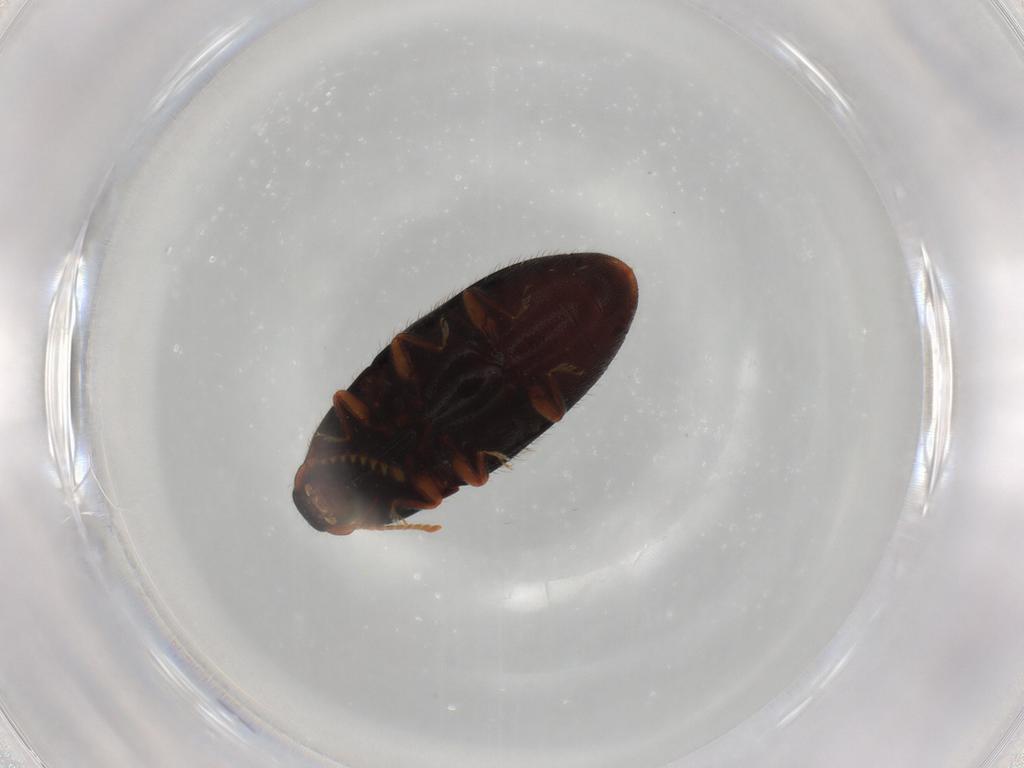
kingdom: Animalia
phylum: Arthropoda
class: Insecta
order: Coleoptera
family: Elateridae
